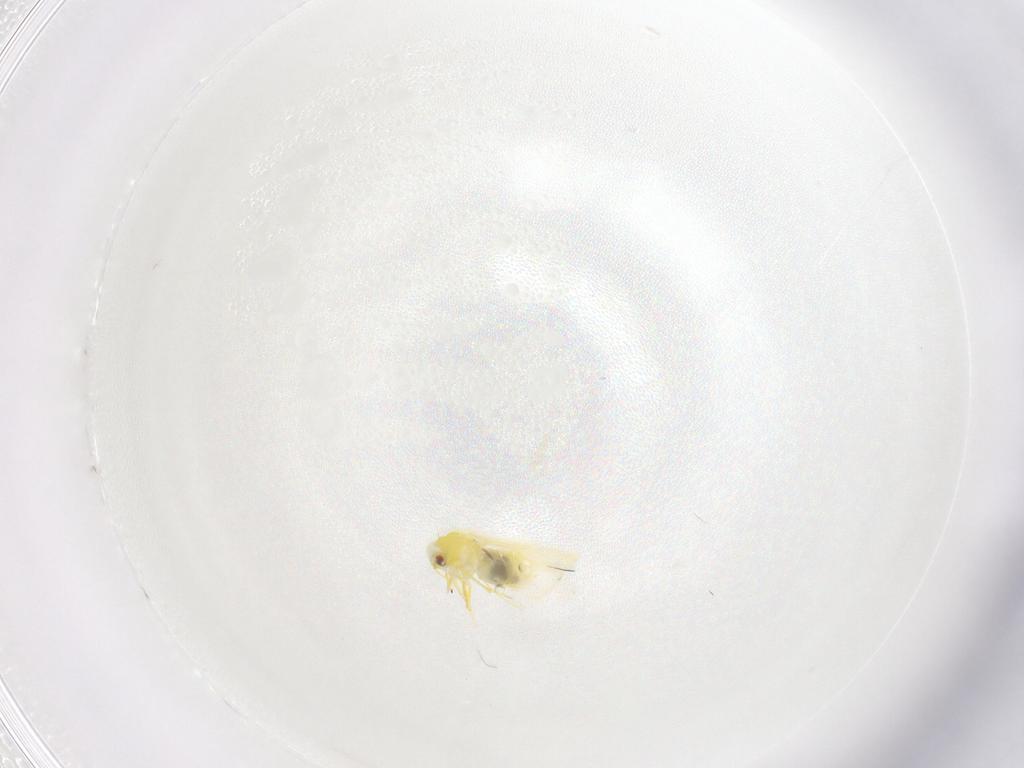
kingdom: Animalia
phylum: Arthropoda
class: Insecta
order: Hemiptera
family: Aleyrodidae
